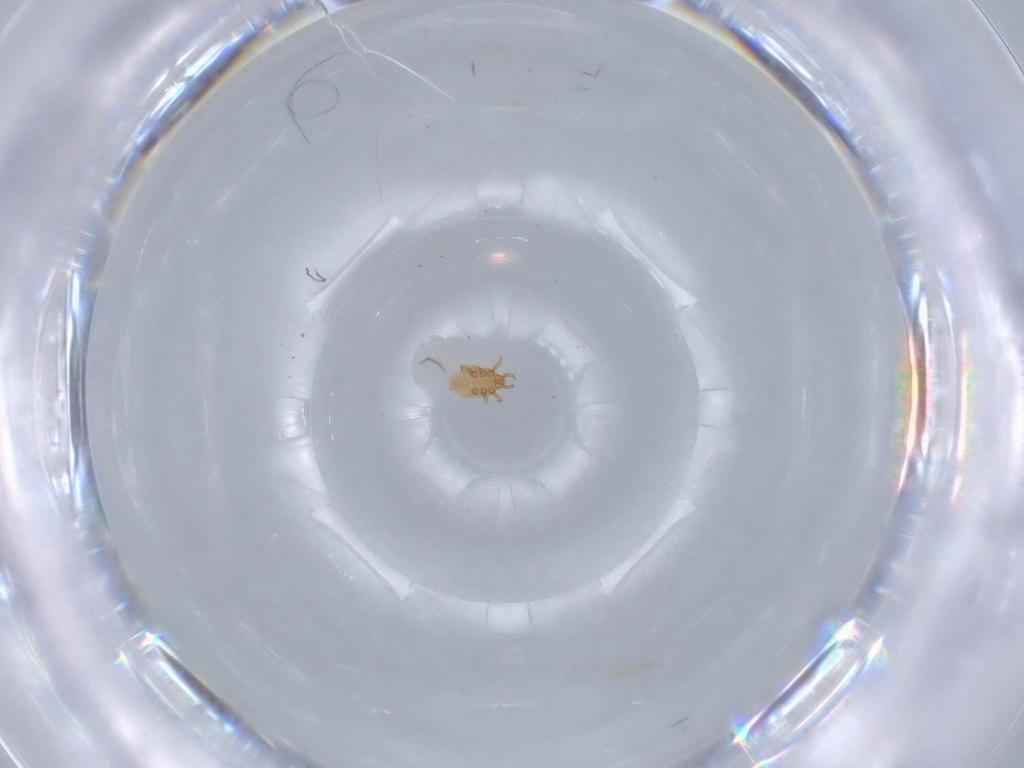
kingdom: Animalia
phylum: Arthropoda
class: Arachnida
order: Mesostigmata
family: Dinychidae
